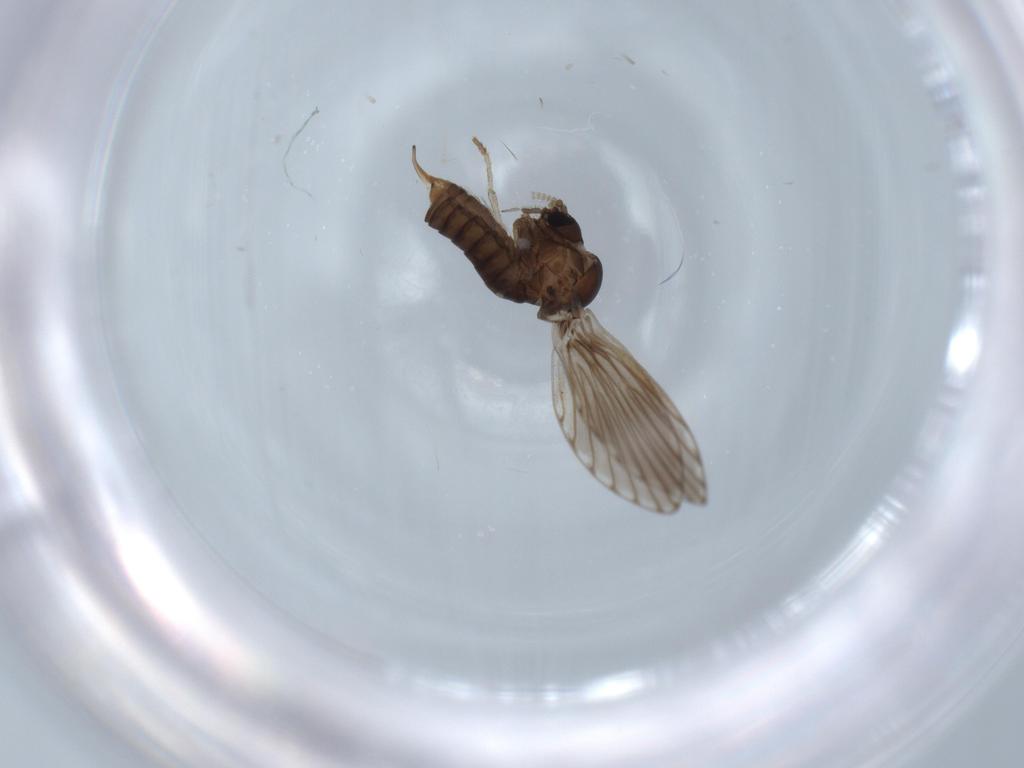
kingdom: Animalia
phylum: Arthropoda
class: Insecta
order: Diptera
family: Psychodidae
